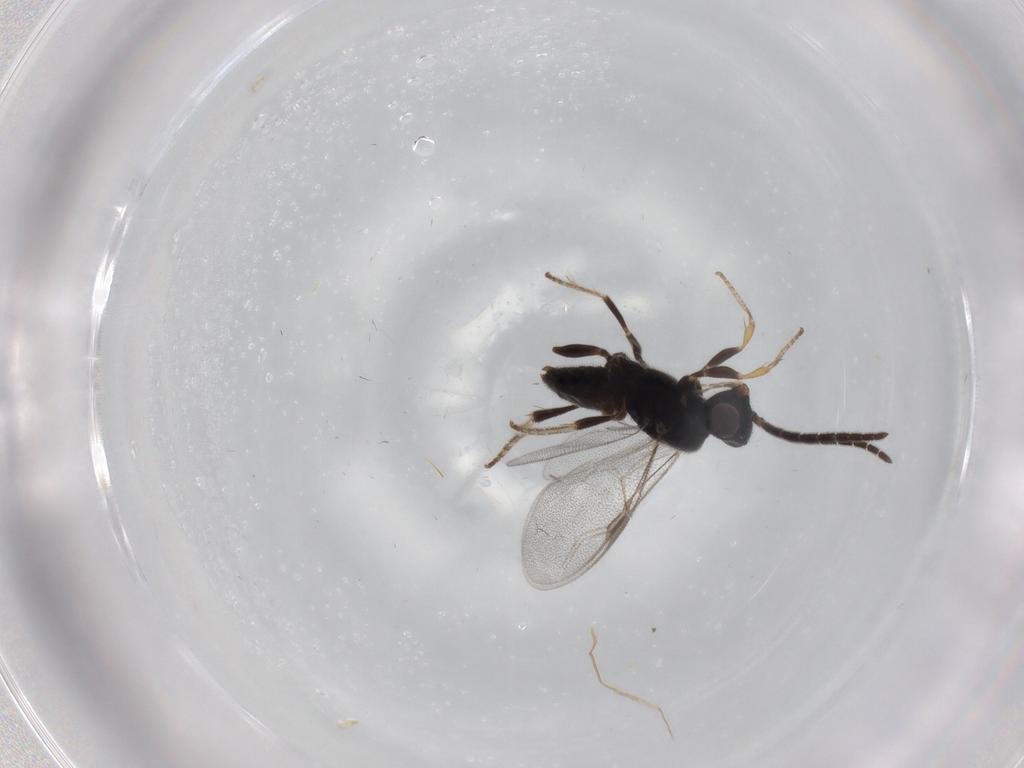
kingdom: Animalia
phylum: Arthropoda
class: Insecta
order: Hymenoptera
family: Dryinidae
